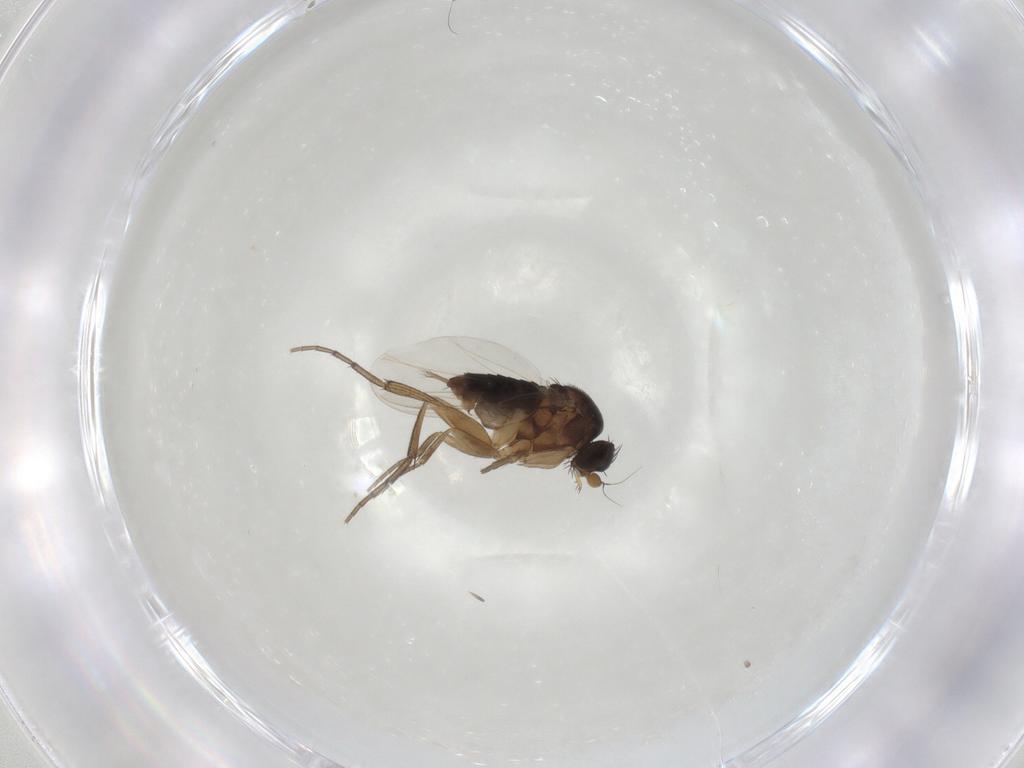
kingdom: Animalia
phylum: Arthropoda
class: Insecta
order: Diptera
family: Phoridae
